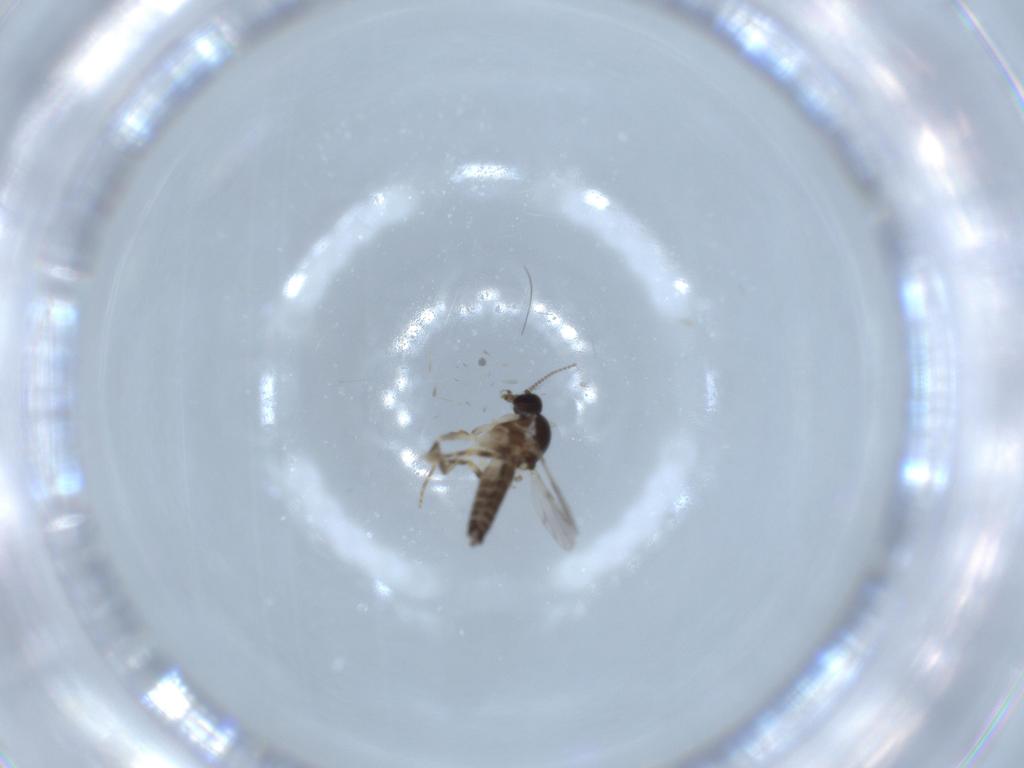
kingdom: Animalia
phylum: Arthropoda
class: Insecta
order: Diptera
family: Ceratopogonidae
